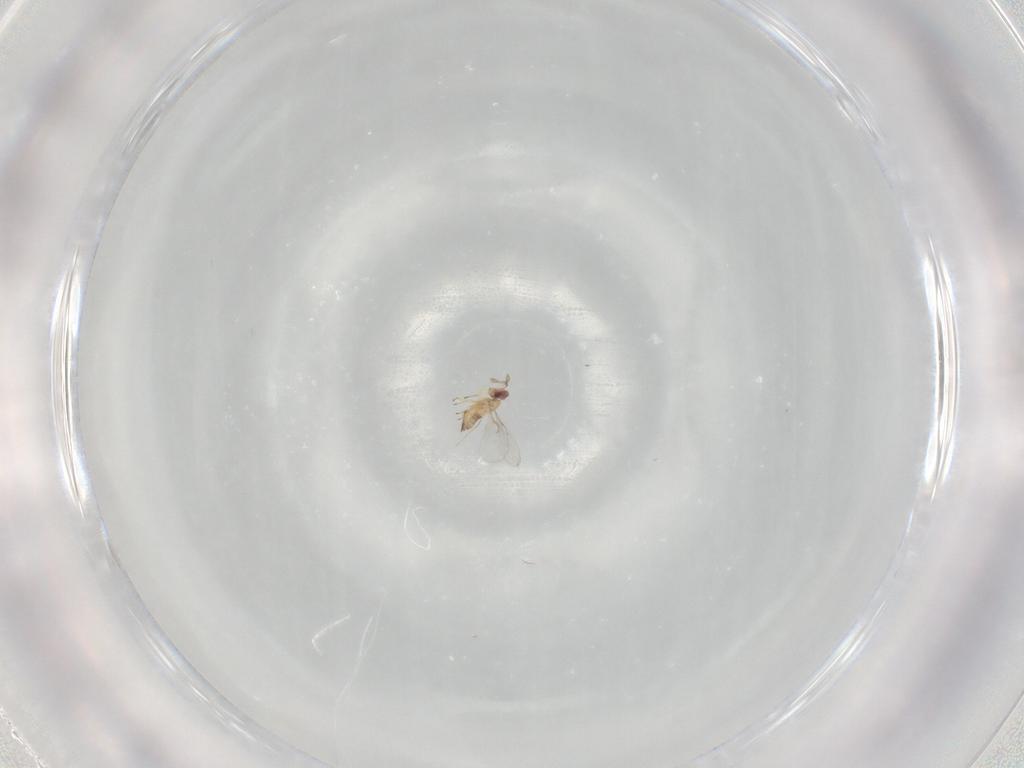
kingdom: Animalia
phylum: Arthropoda
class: Insecta
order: Hymenoptera
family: Trichogrammatidae
